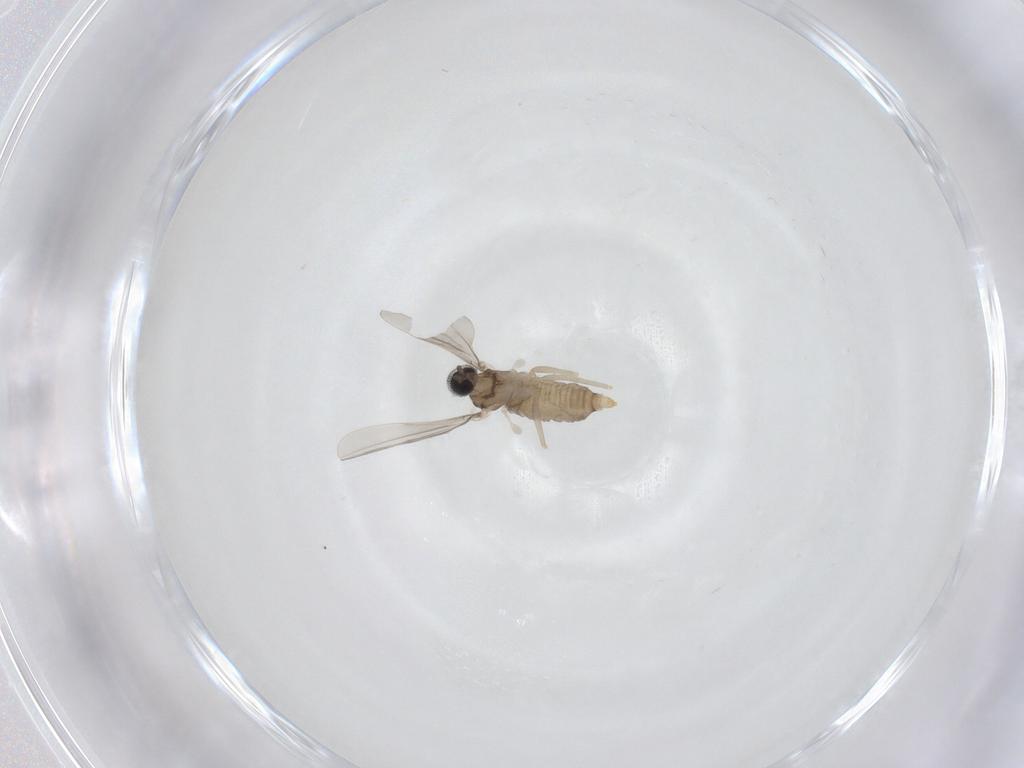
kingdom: Animalia
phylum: Arthropoda
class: Insecta
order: Diptera
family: Cecidomyiidae
